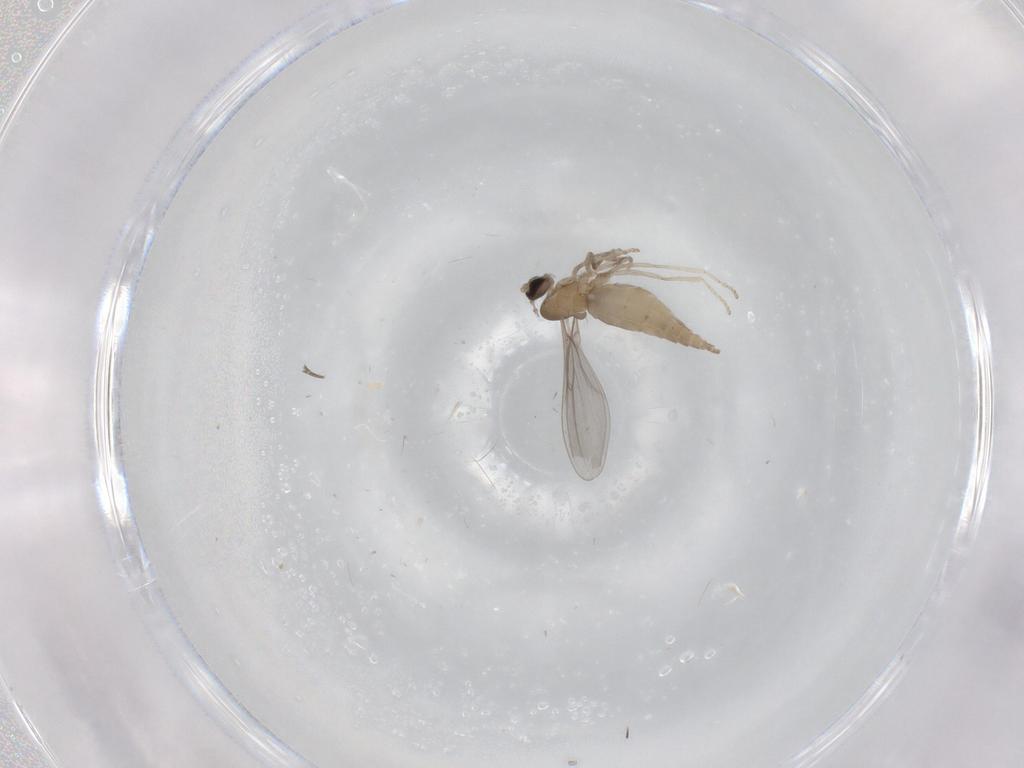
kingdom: Animalia
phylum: Arthropoda
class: Insecta
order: Diptera
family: Cecidomyiidae
